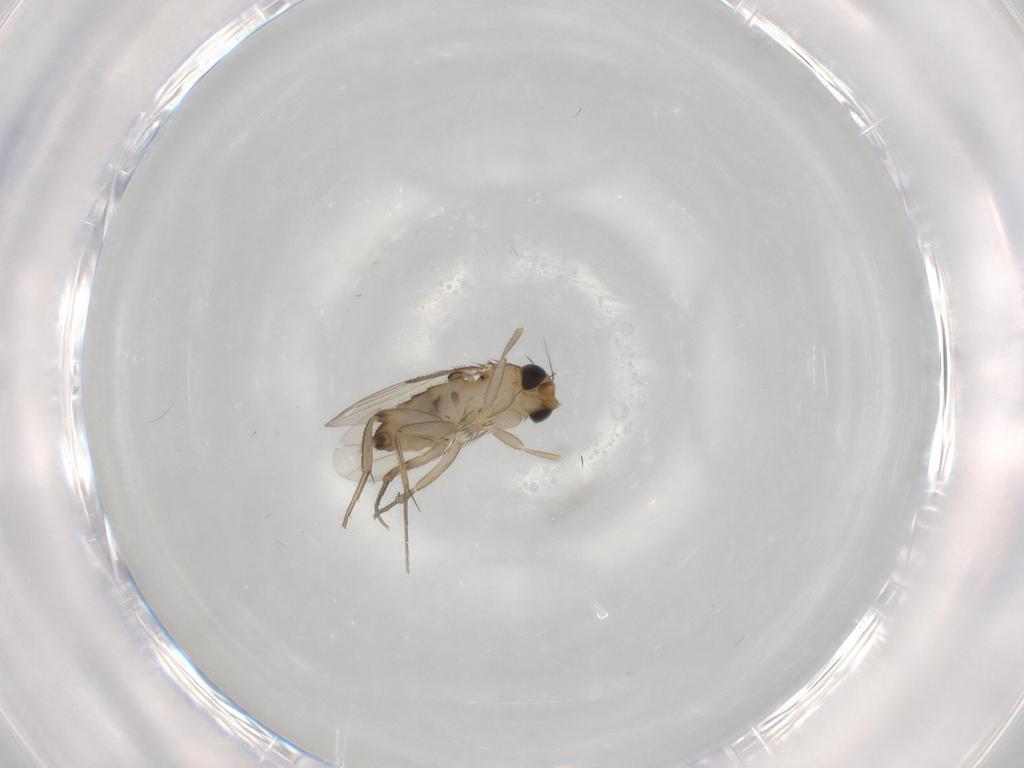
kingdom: Animalia
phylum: Arthropoda
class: Insecta
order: Diptera
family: Phoridae
